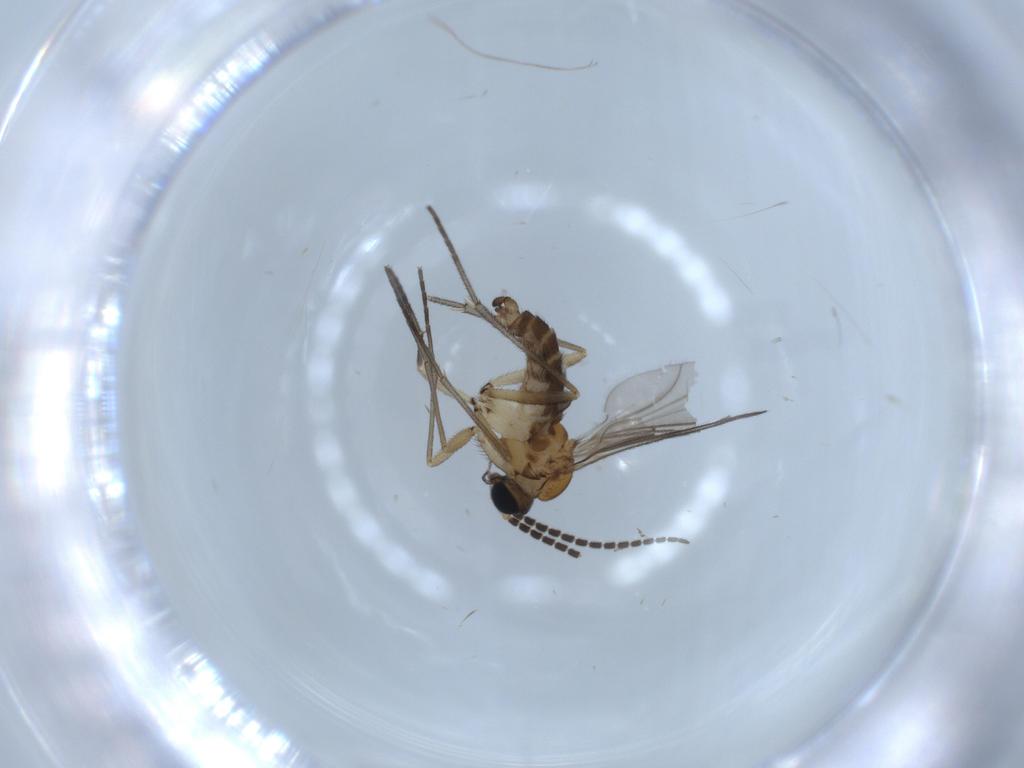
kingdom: Animalia
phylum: Arthropoda
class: Insecta
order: Diptera
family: Sciaridae
